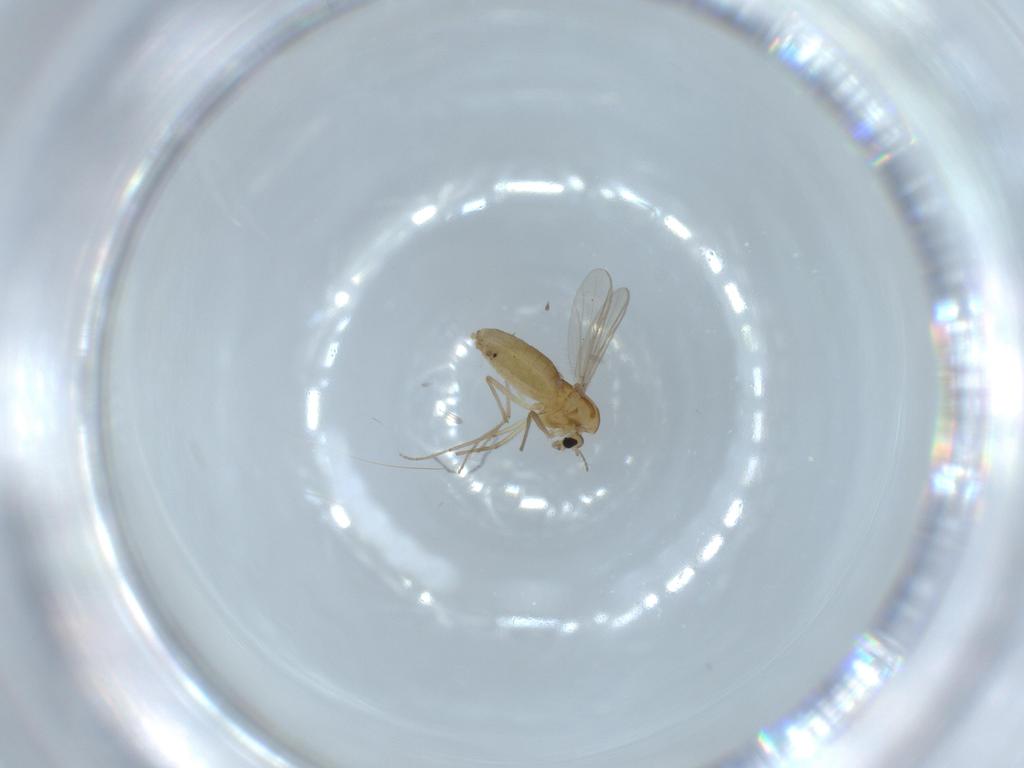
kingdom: Animalia
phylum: Arthropoda
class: Insecta
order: Diptera
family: Chironomidae
